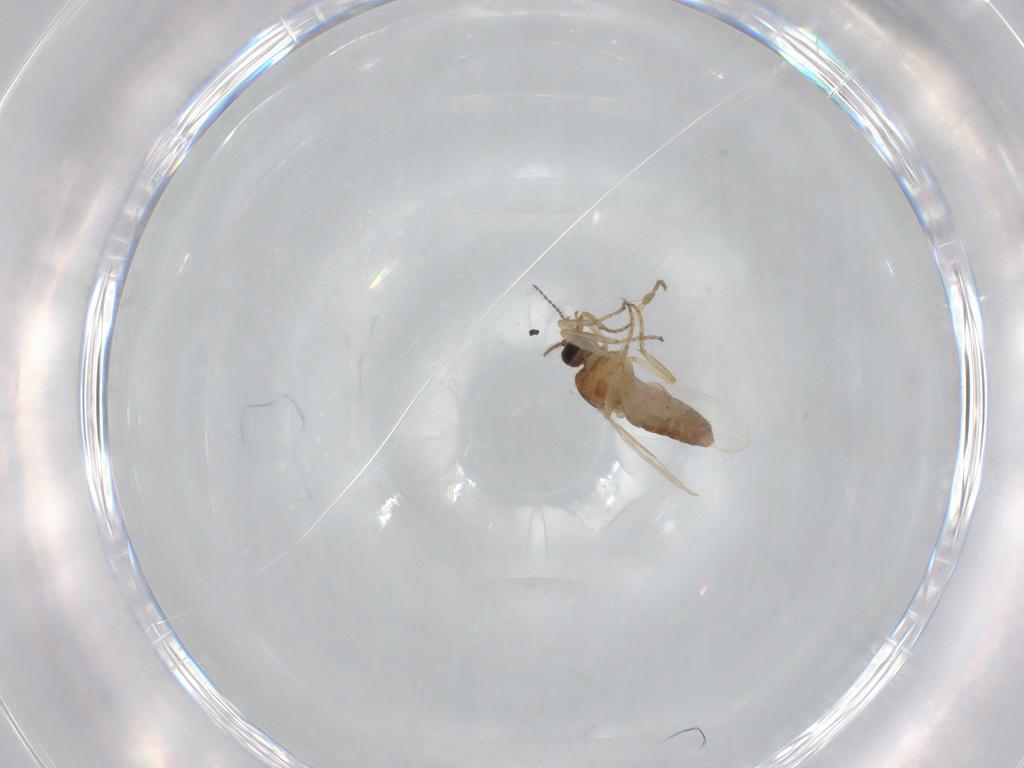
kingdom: Animalia
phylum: Arthropoda
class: Insecta
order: Diptera
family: Ceratopogonidae
